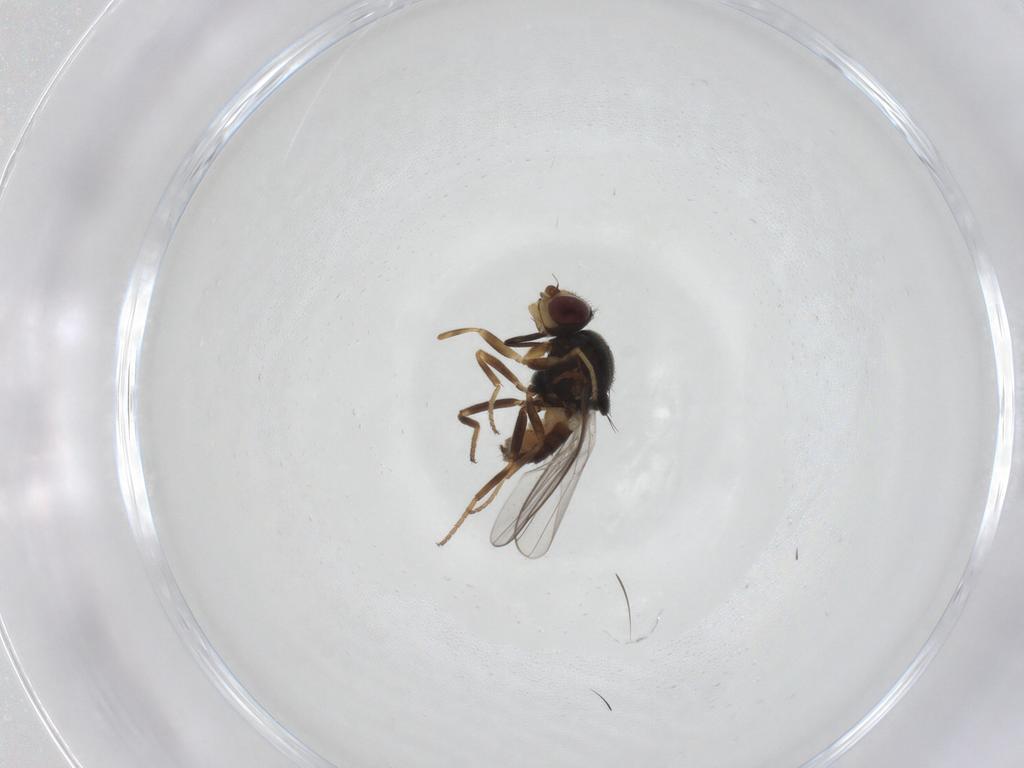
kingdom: Animalia
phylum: Arthropoda
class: Insecta
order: Diptera
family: Chloropidae
